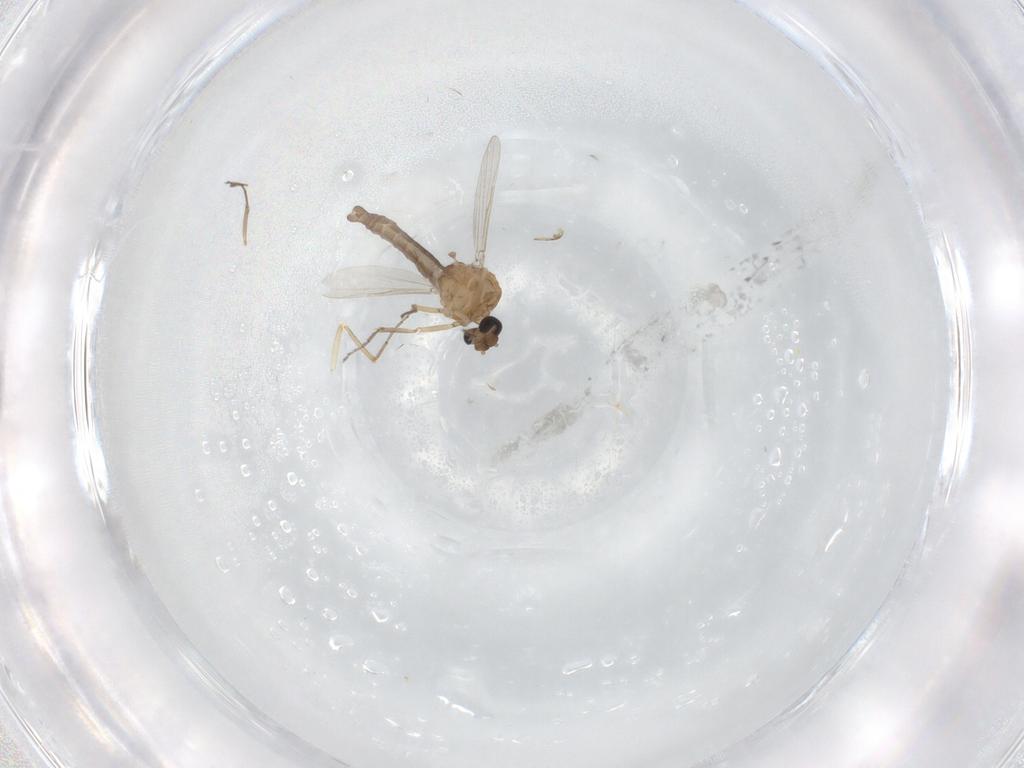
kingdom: Animalia
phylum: Arthropoda
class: Insecta
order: Diptera
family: Ceratopogonidae
